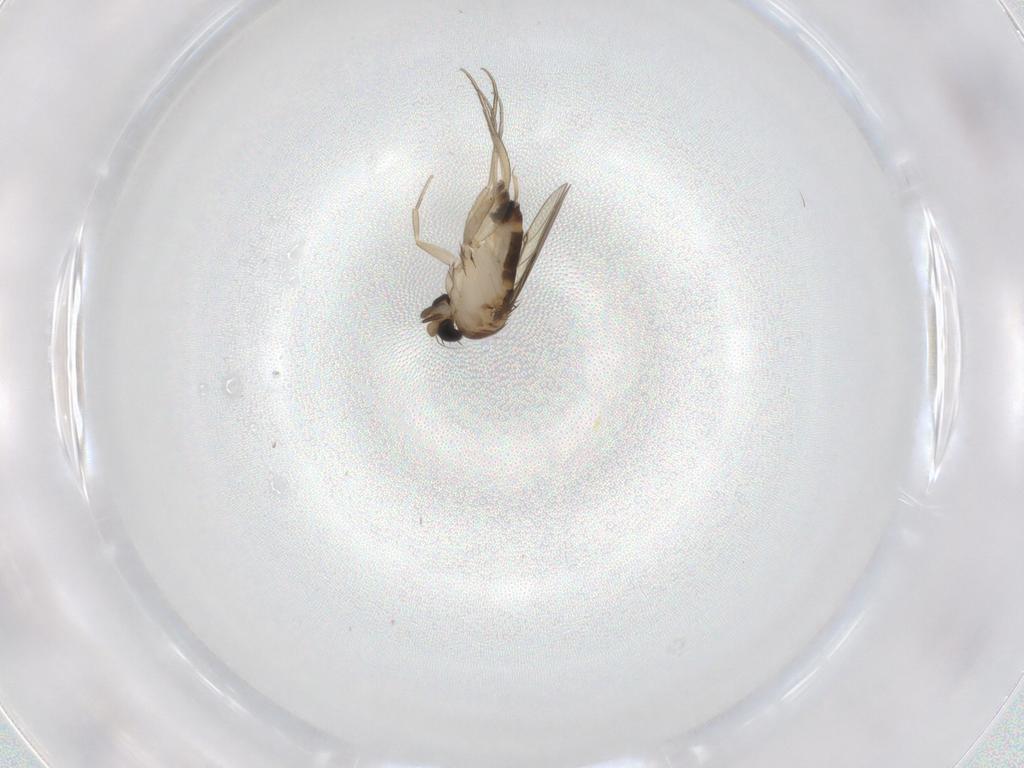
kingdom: Animalia
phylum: Arthropoda
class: Insecta
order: Diptera
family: Phoridae
